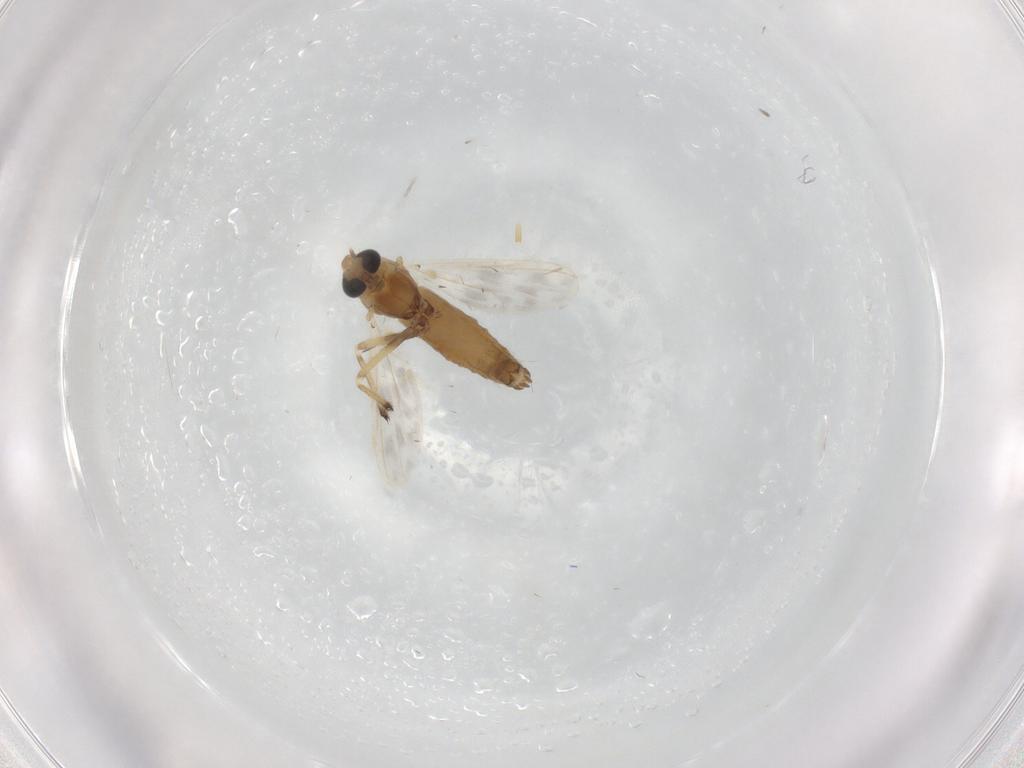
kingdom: Animalia
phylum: Arthropoda
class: Insecta
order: Diptera
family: Chironomidae
